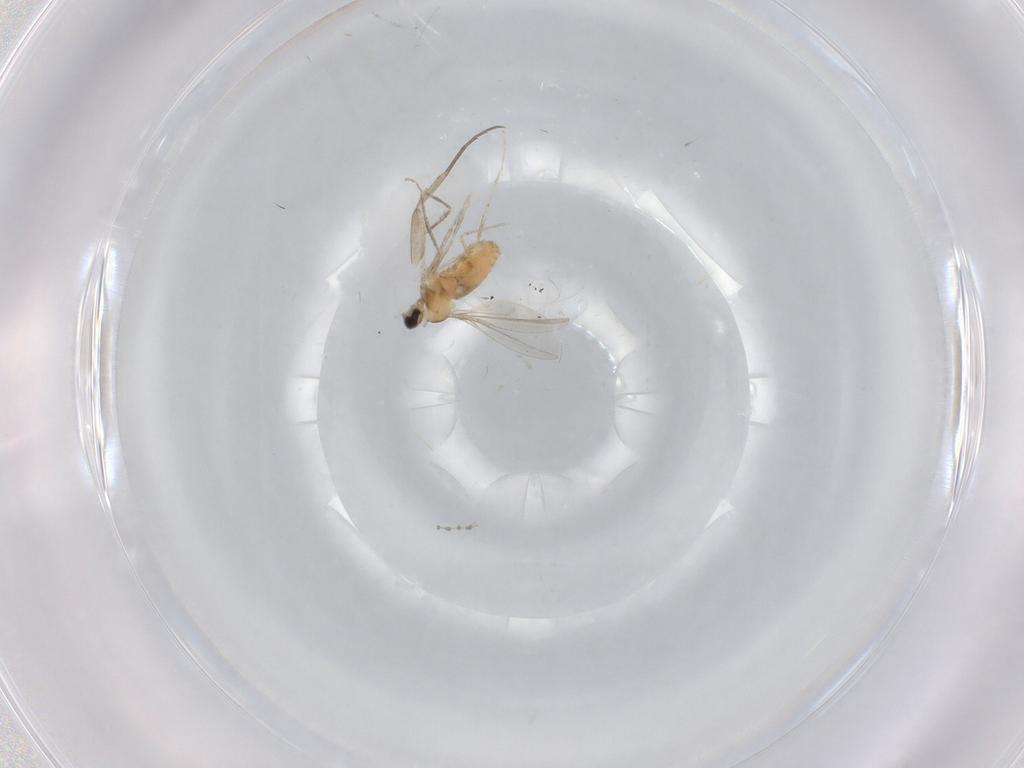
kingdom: Animalia
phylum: Arthropoda
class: Insecta
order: Diptera
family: Phoridae
